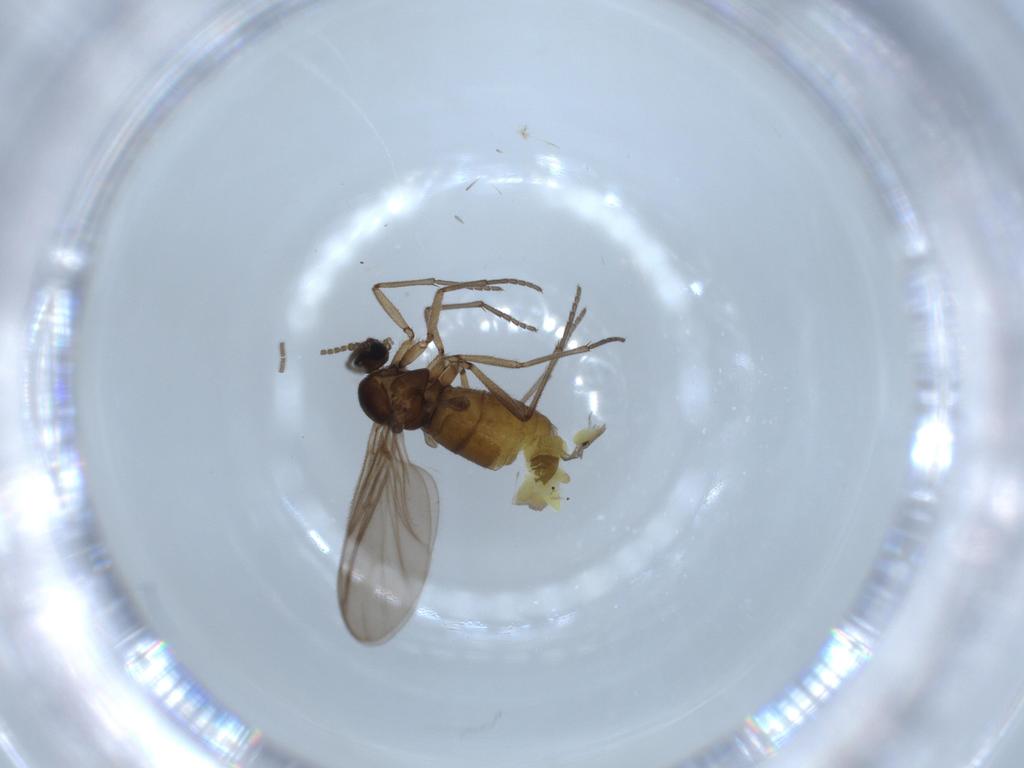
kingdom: Animalia
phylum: Arthropoda
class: Insecta
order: Diptera
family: Sciaridae
